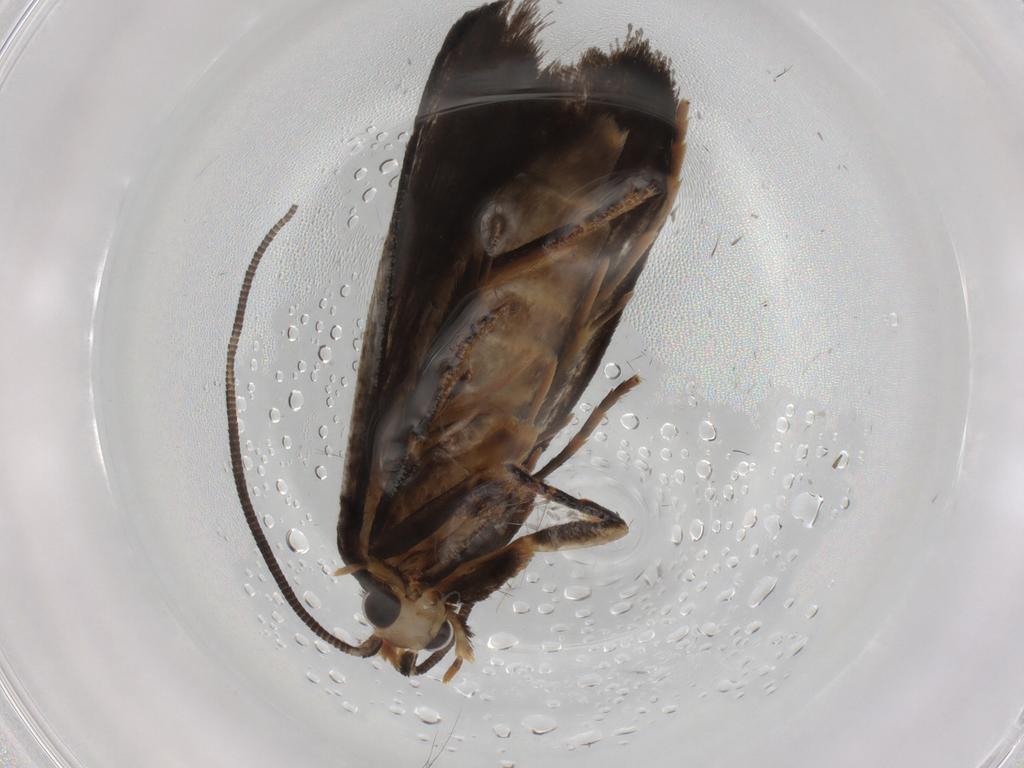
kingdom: Animalia
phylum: Arthropoda
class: Insecta
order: Lepidoptera
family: Tineidae
